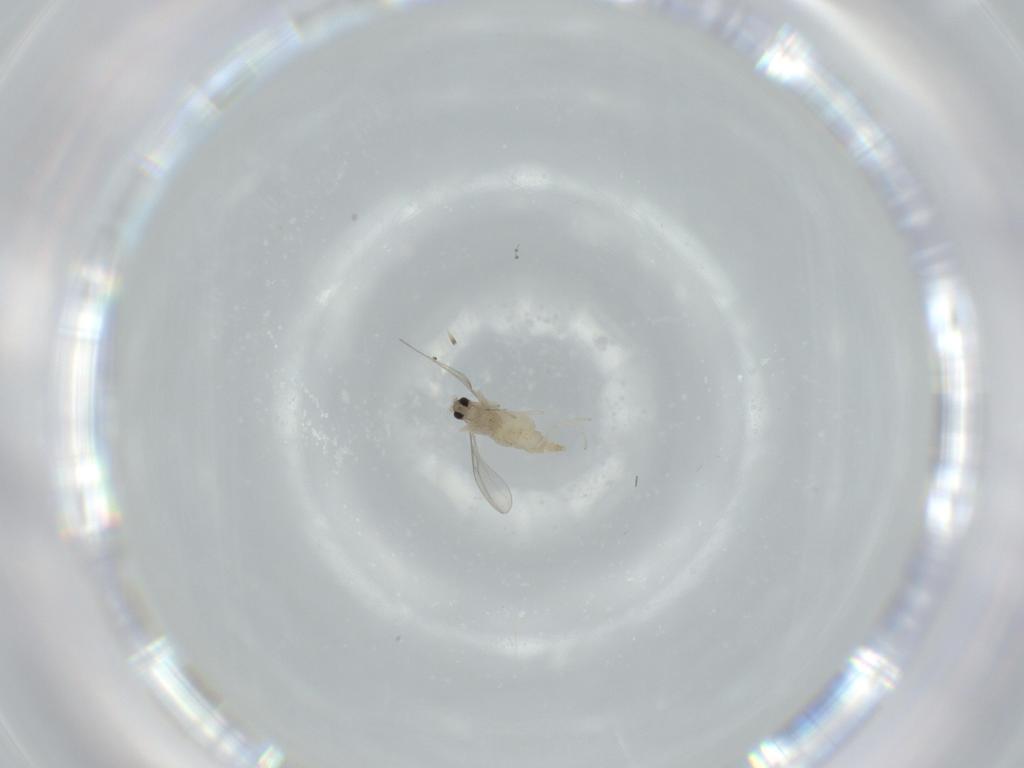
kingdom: Animalia
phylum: Arthropoda
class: Insecta
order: Diptera
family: Cecidomyiidae
